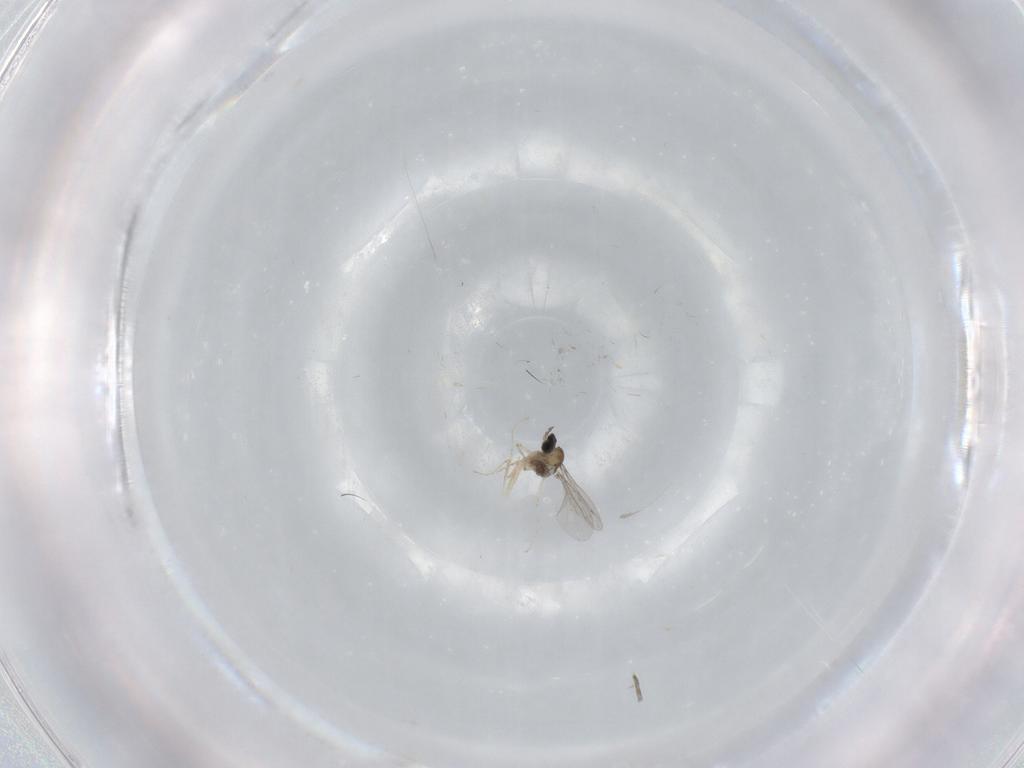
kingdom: Animalia
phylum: Arthropoda
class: Insecta
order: Diptera
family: Cecidomyiidae
